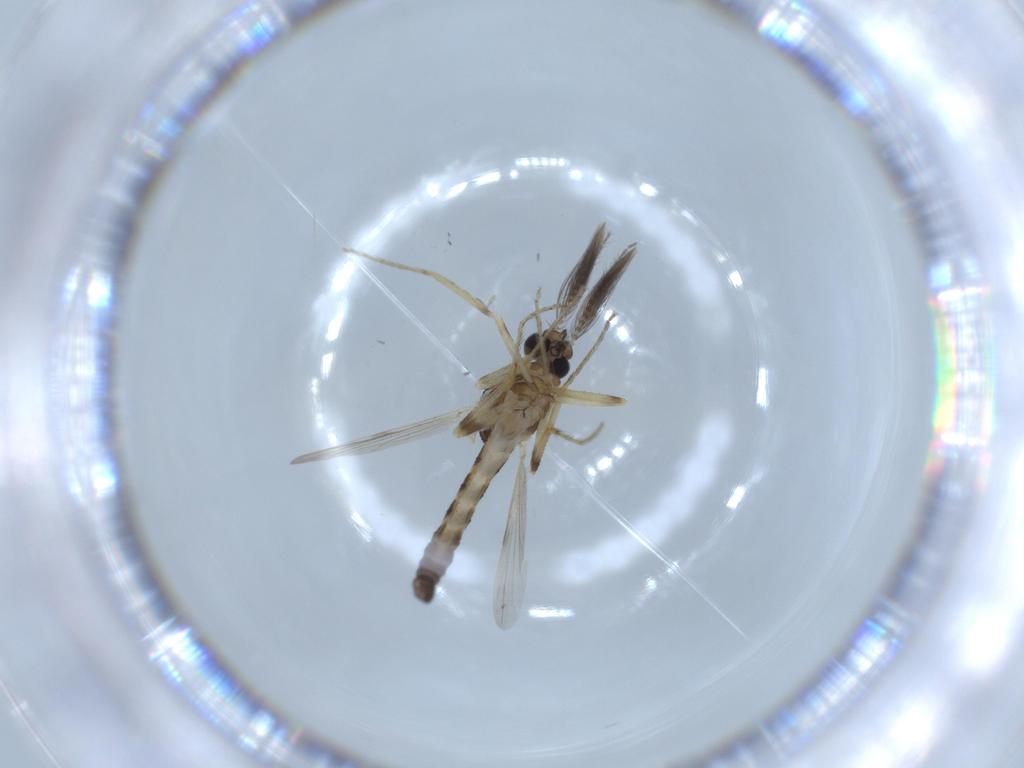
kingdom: Animalia
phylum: Arthropoda
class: Insecta
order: Diptera
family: Ceratopogonidae
